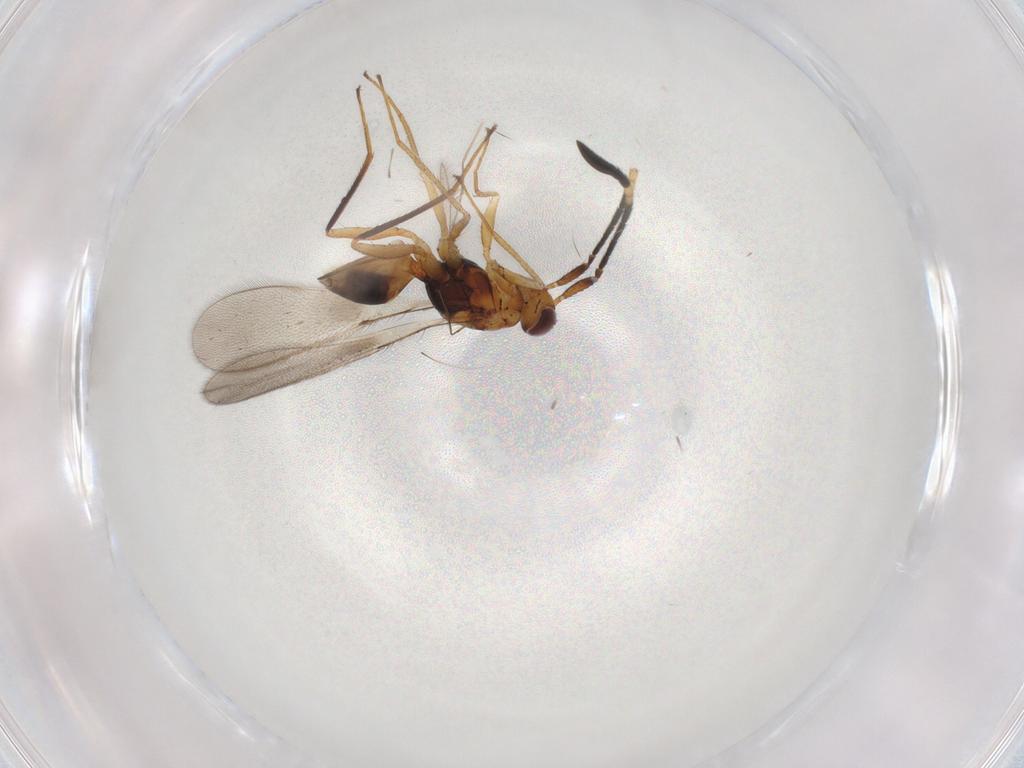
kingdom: Animalia
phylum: Arthropoda
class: Insecta
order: Hymenoptera
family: Mymaridae
